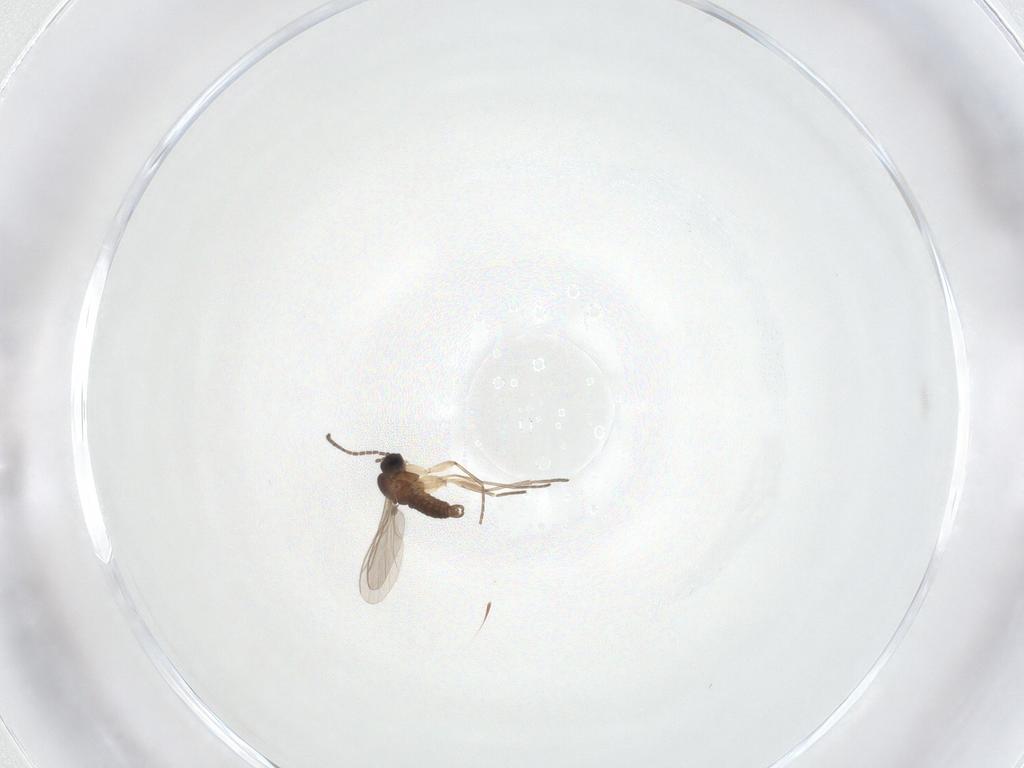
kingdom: Animalia
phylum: Arthropoda
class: Insecta
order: Diptera
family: Sciaridae
